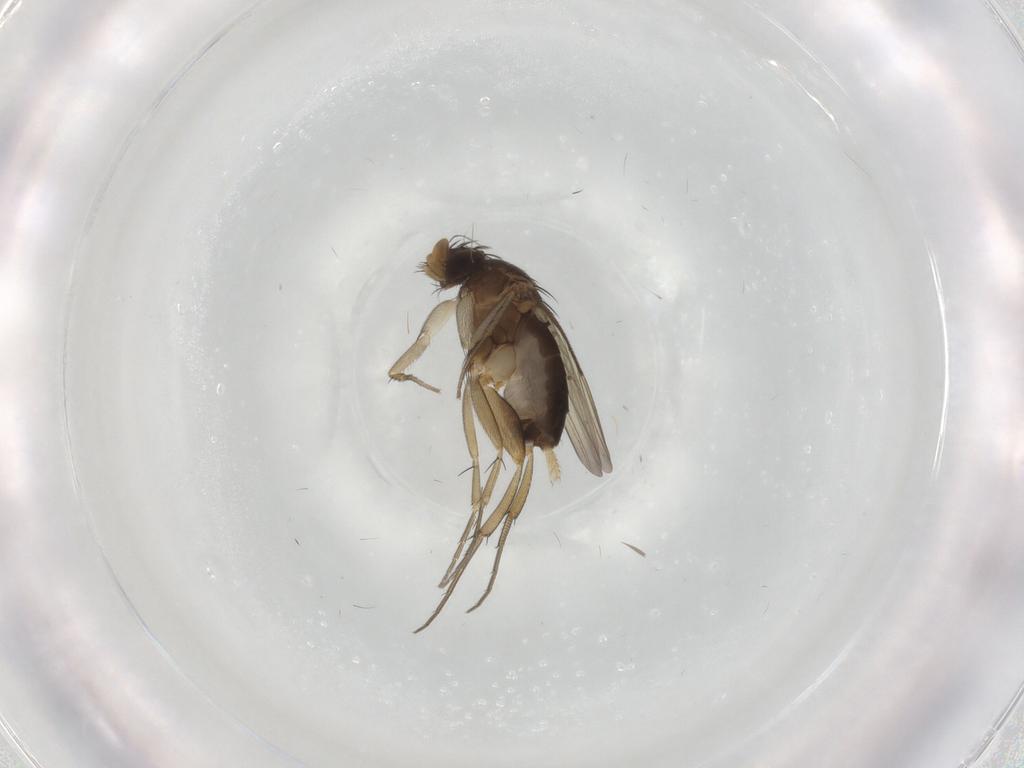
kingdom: Animalia
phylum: Arthropoda
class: Insecta
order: Diptera
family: Phoridae
